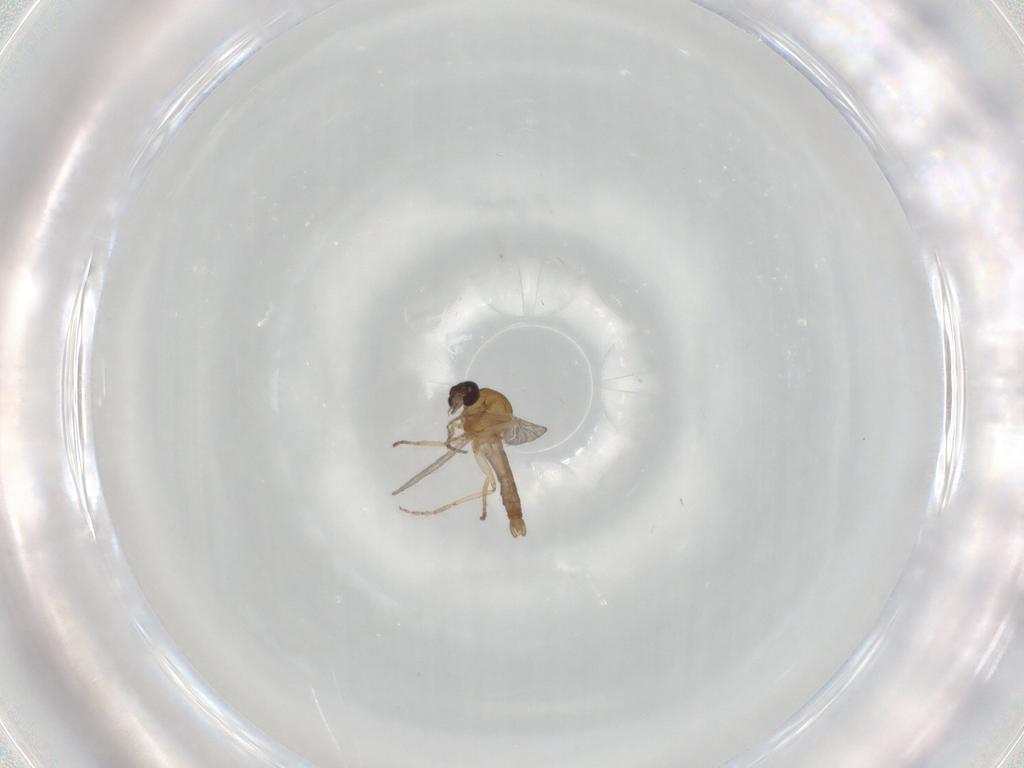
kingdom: Animalia
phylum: Arthropoda
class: Insecta
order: Diptera
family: Ceratopogonidae
